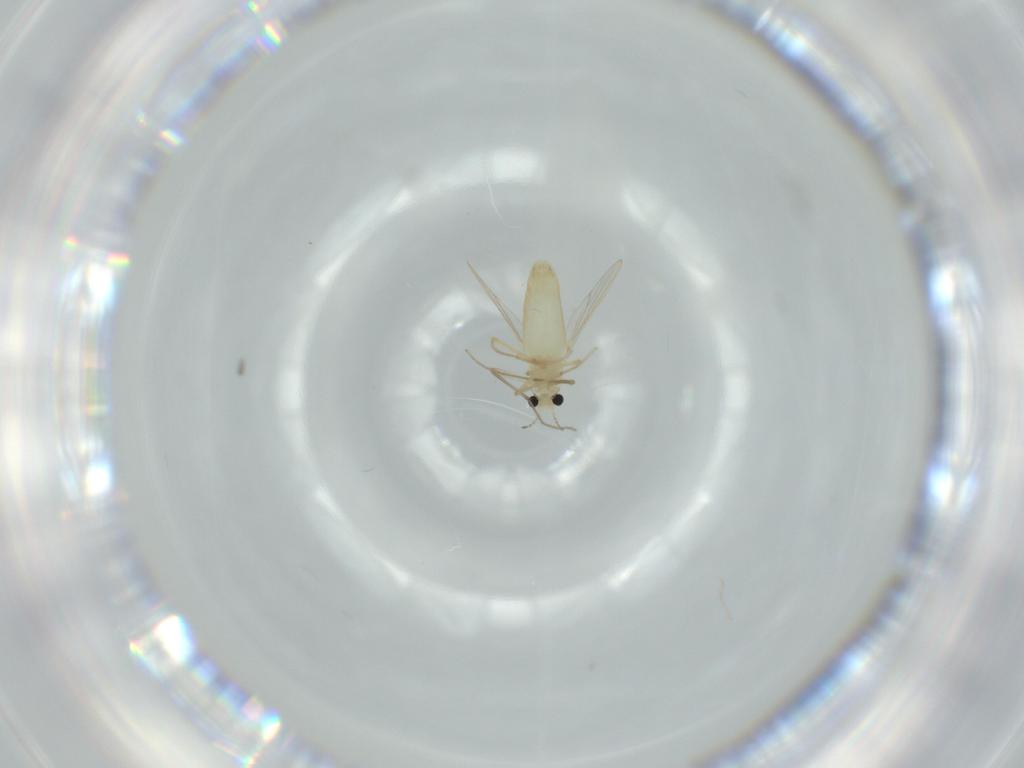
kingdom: Animalia
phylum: Arthropoda
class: Insecta
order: Diptera
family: Chironomidae
